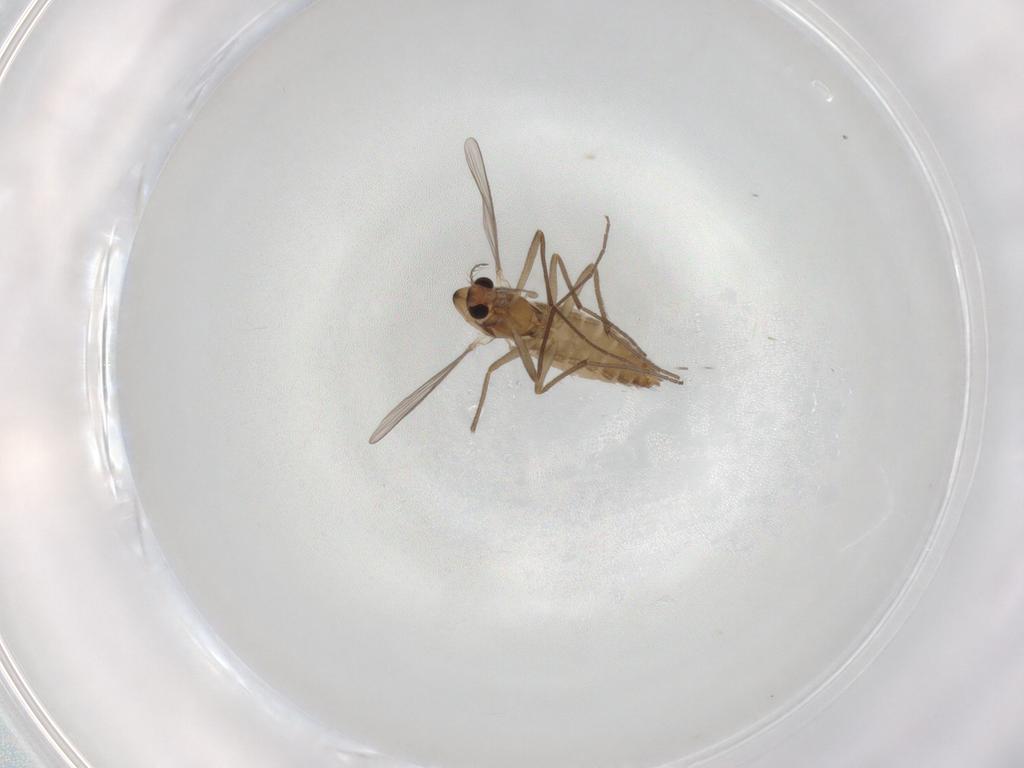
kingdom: Animalia
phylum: Arthropoda
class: Insecta
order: Diptera
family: Chironomidae
